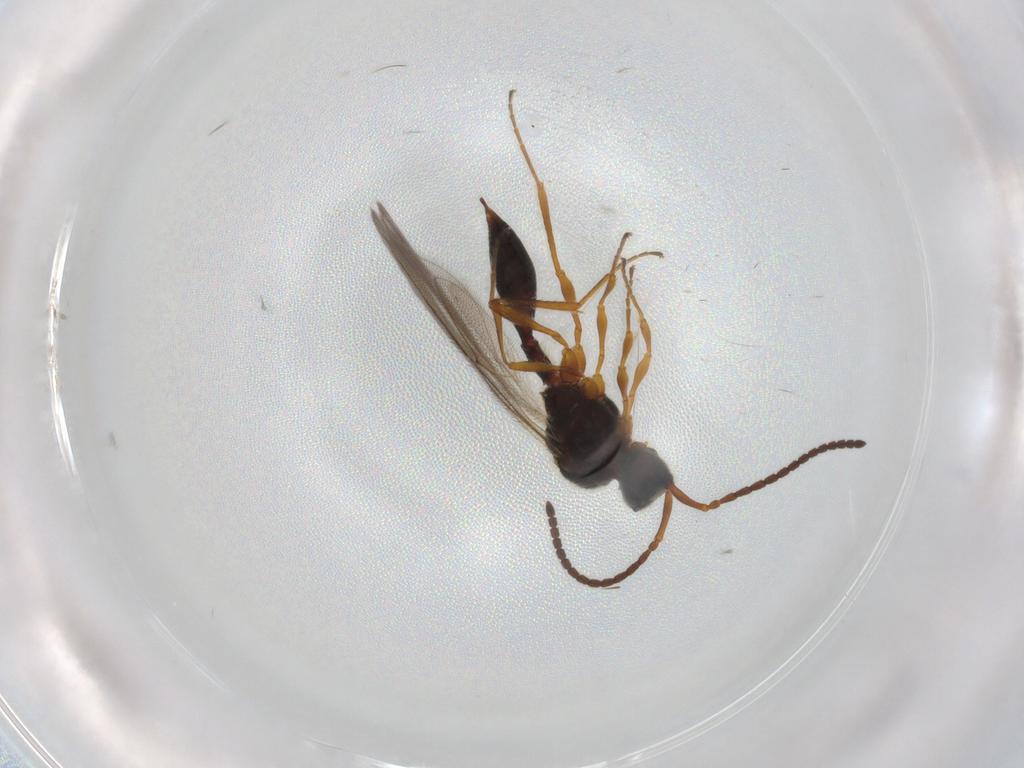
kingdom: Animalia
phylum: Arthropoda
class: Insecta
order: Hymenoptera
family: Diapriidae
